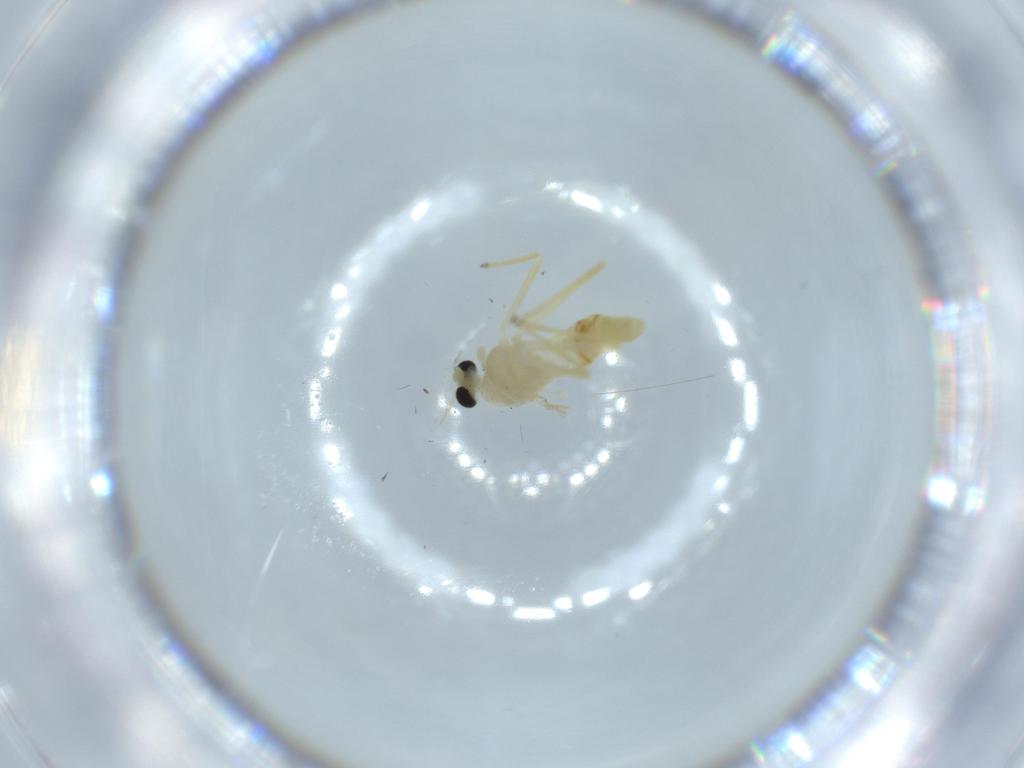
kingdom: Animalia
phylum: Arthropoda
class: Insecta
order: Diptera
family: Chironomidae
